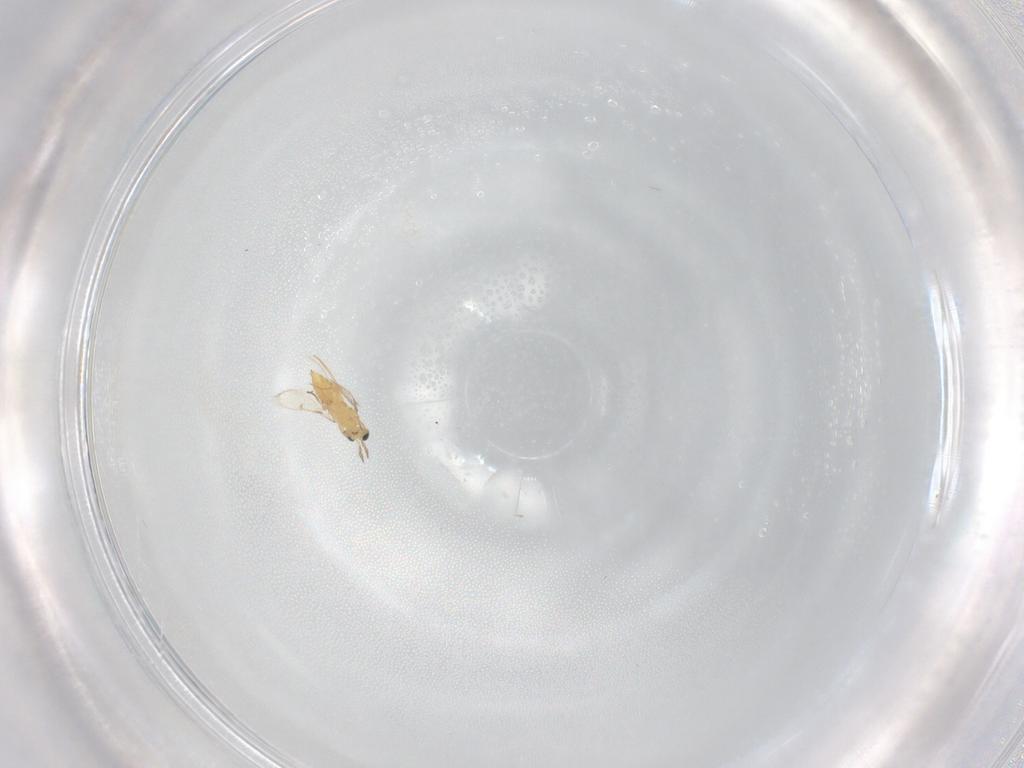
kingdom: Animalia
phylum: Arthropoda
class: Insecta
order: Hymenoptera
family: Trichogrammatidae
